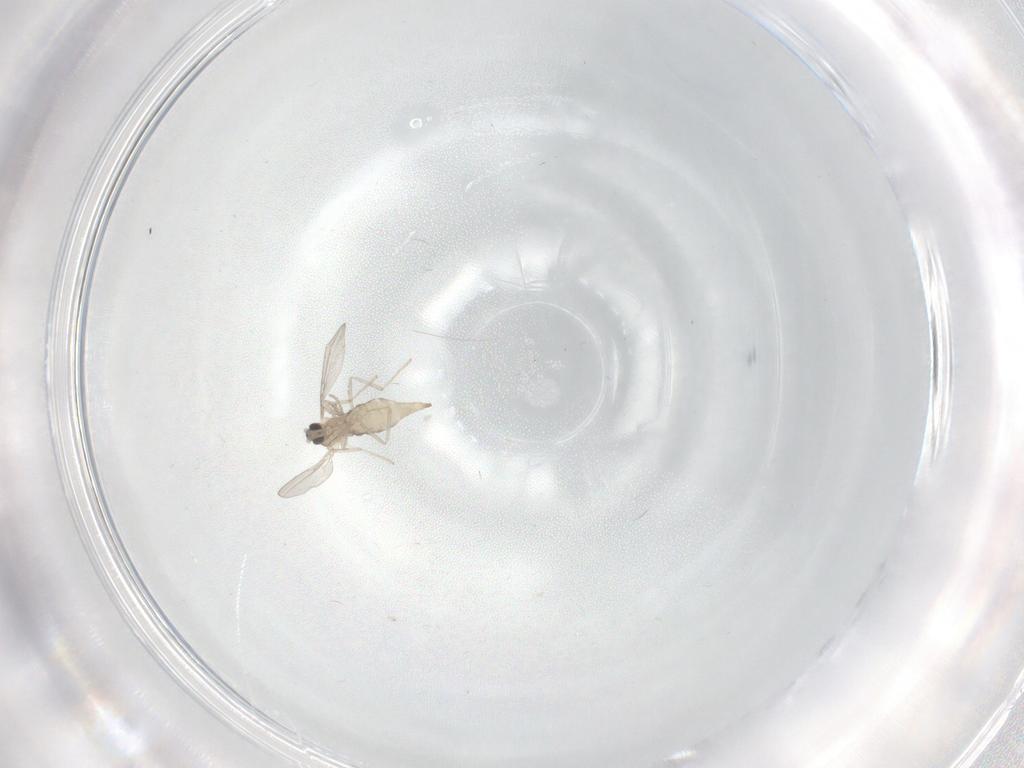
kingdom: Animalia
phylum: Arthropoda
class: Insecta
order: Diptera
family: Cecidomyiidae
